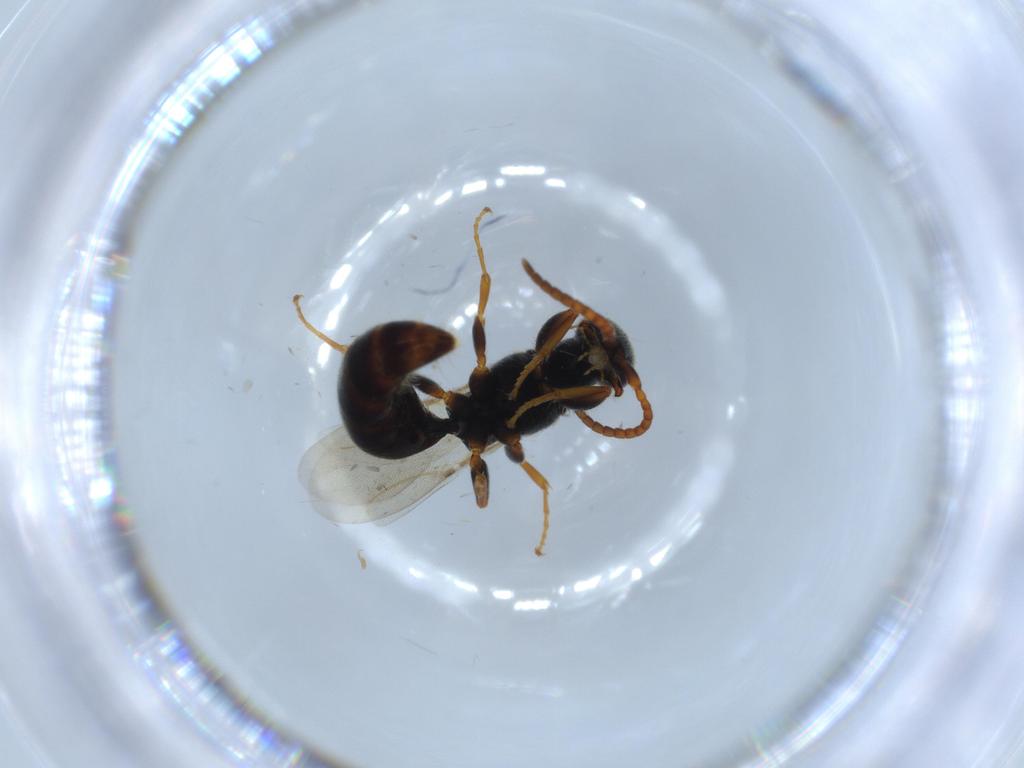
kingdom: Animalia
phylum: Arthropoda
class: Insecta
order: Hymenoptera
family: Bethylidae
